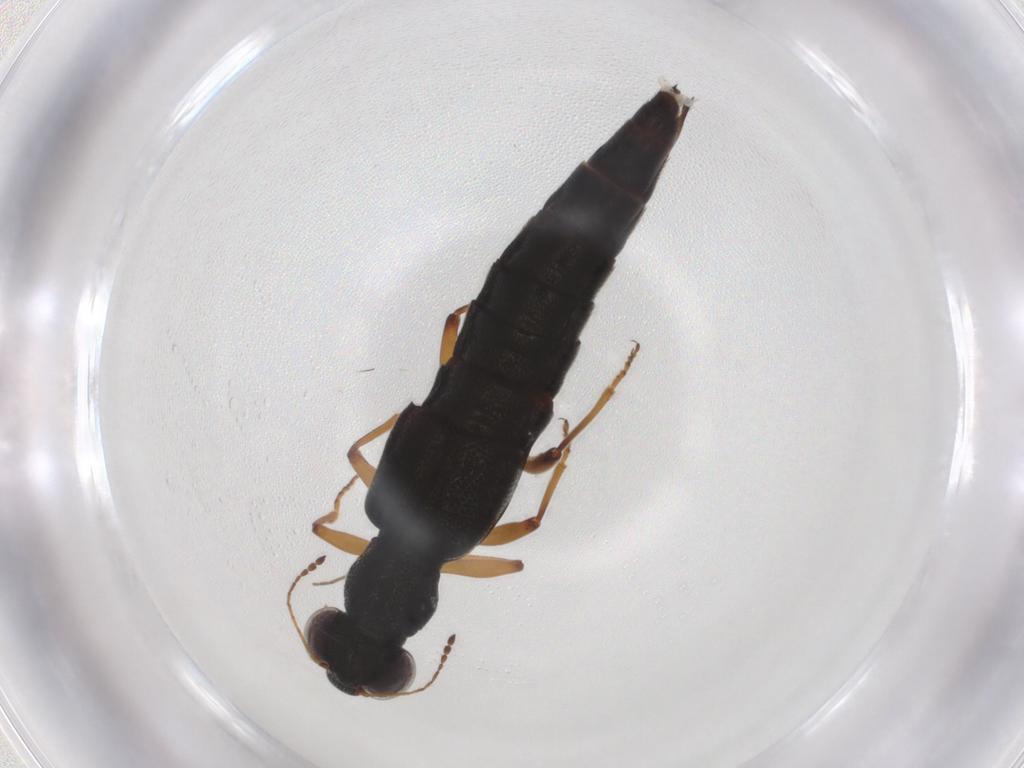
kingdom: Animalia
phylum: Arthropoda
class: Insecta
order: Coleoptera
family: Staphylinidae
